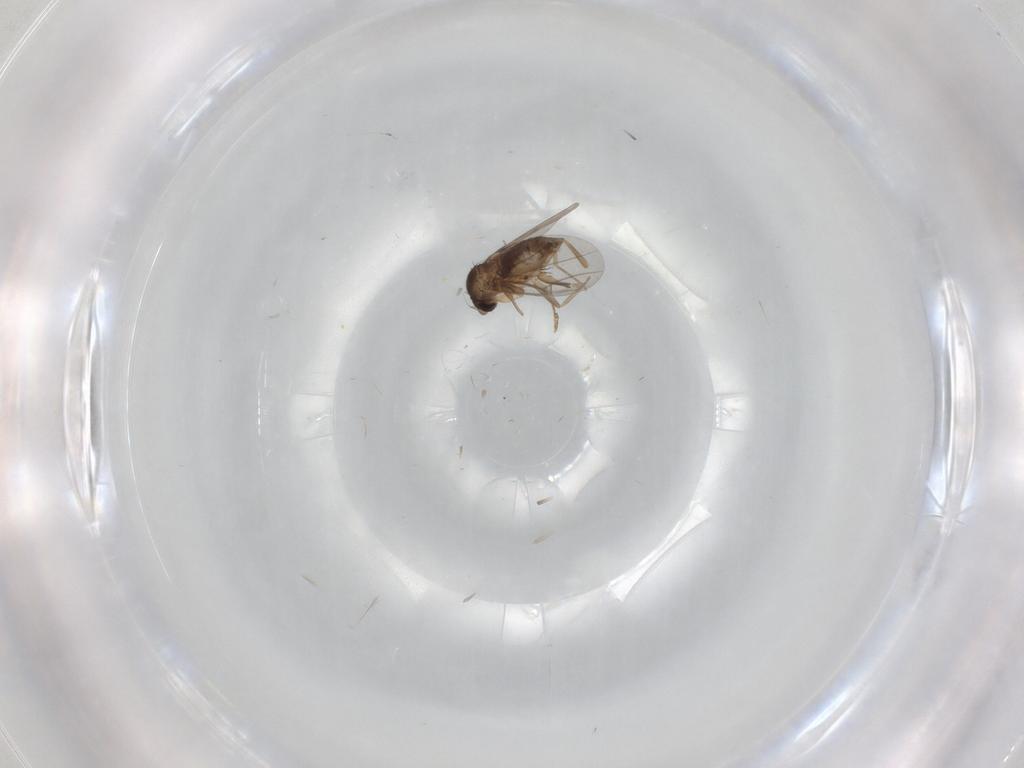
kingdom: Animalia
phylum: Arthropoda
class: Insecta
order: Diptera
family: Phoridae
